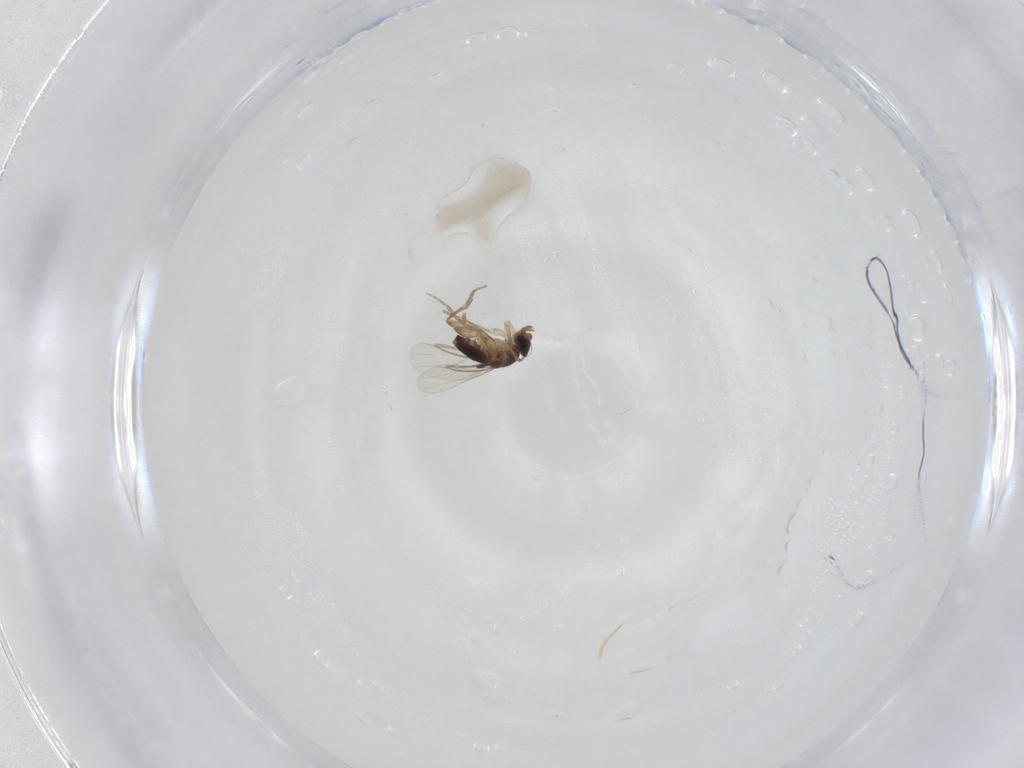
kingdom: Animalia
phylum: Arthropoda
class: Insecta
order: Diptera
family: Phoridae
